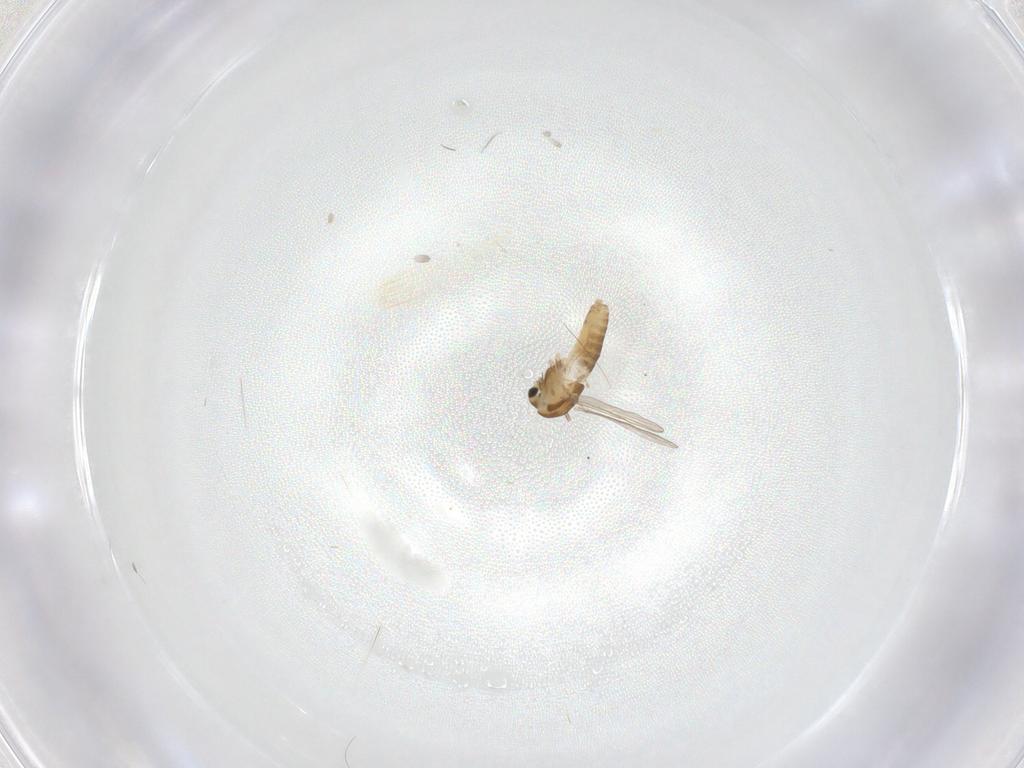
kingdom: Animalia
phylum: Arthropoda
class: Insecta
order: Diptera
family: Chironomidae
